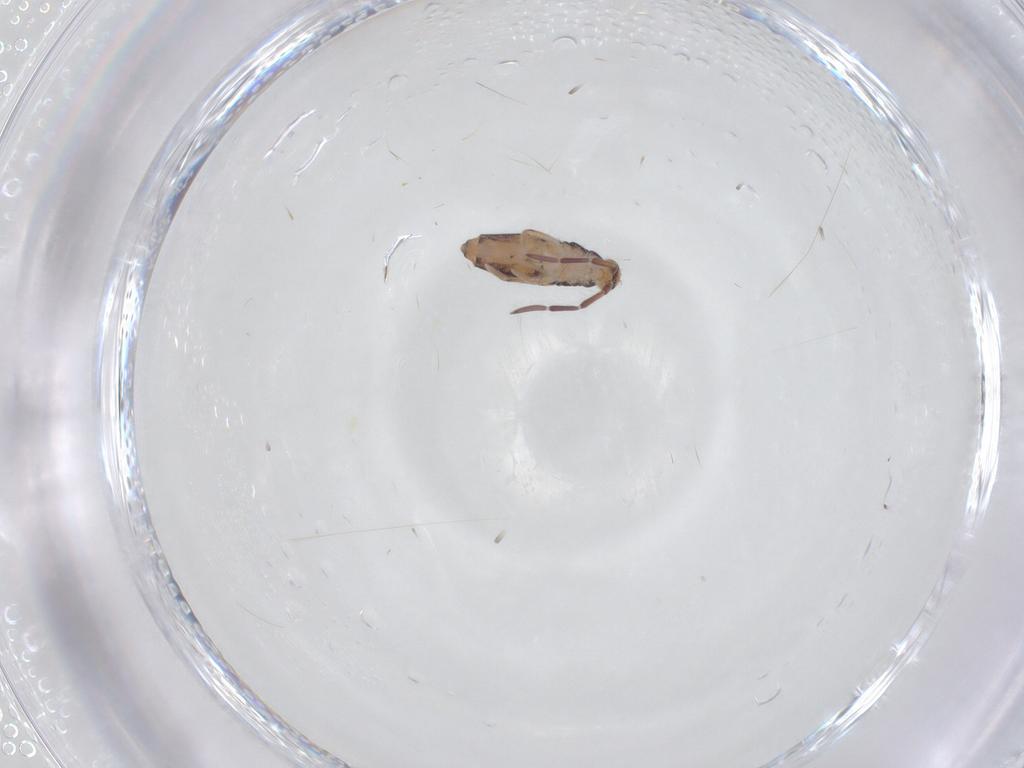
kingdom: Animalia
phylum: Arthropoda
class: Collembola
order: Entomobryomorpha
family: Entomobryidae
